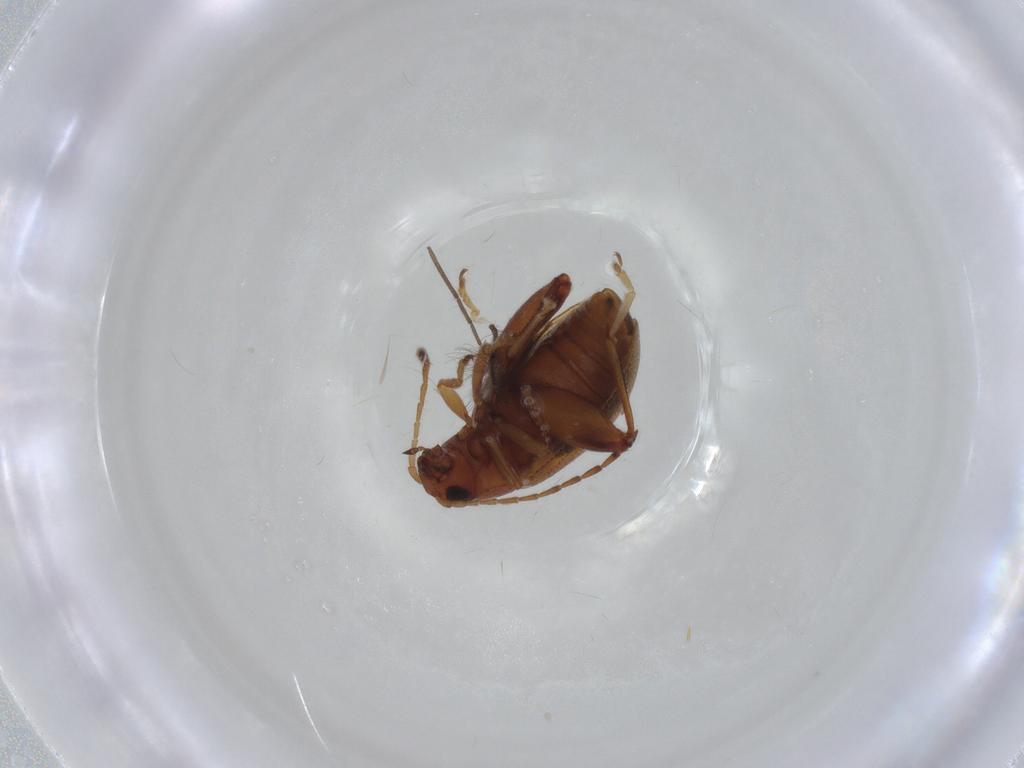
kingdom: Animalia
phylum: Arthropoda
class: Insecta
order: Coleoptera
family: Chrysomelidae
